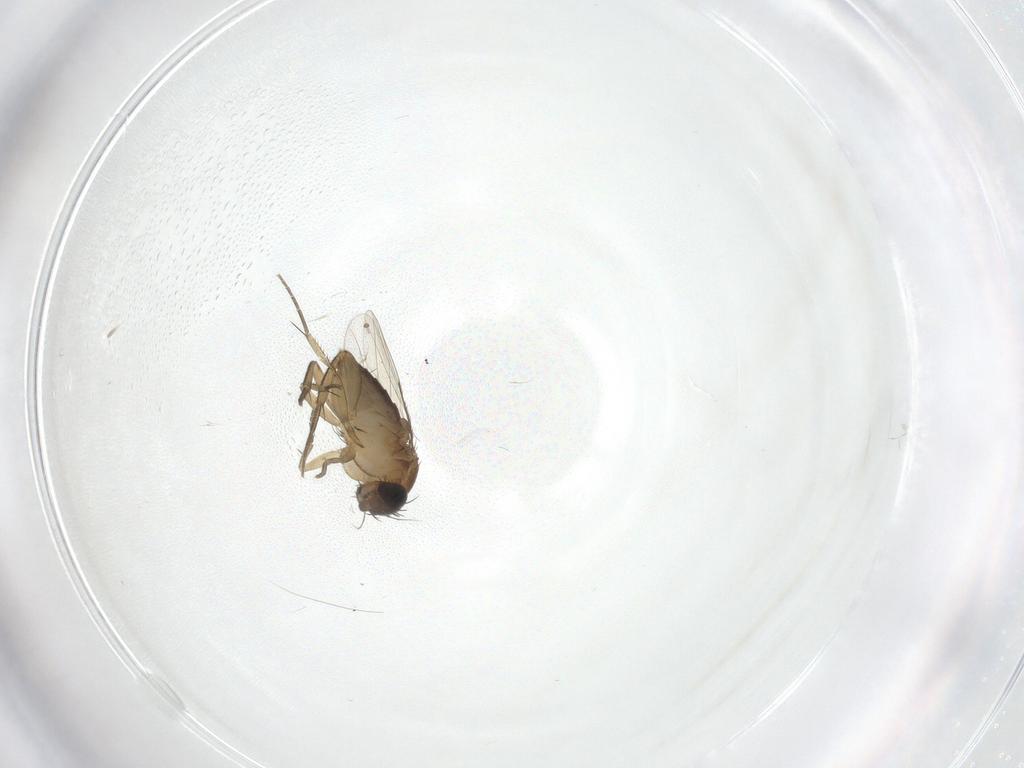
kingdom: Animalia
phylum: Arthropoda
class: Insecta
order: Diptera
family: Phoridae
